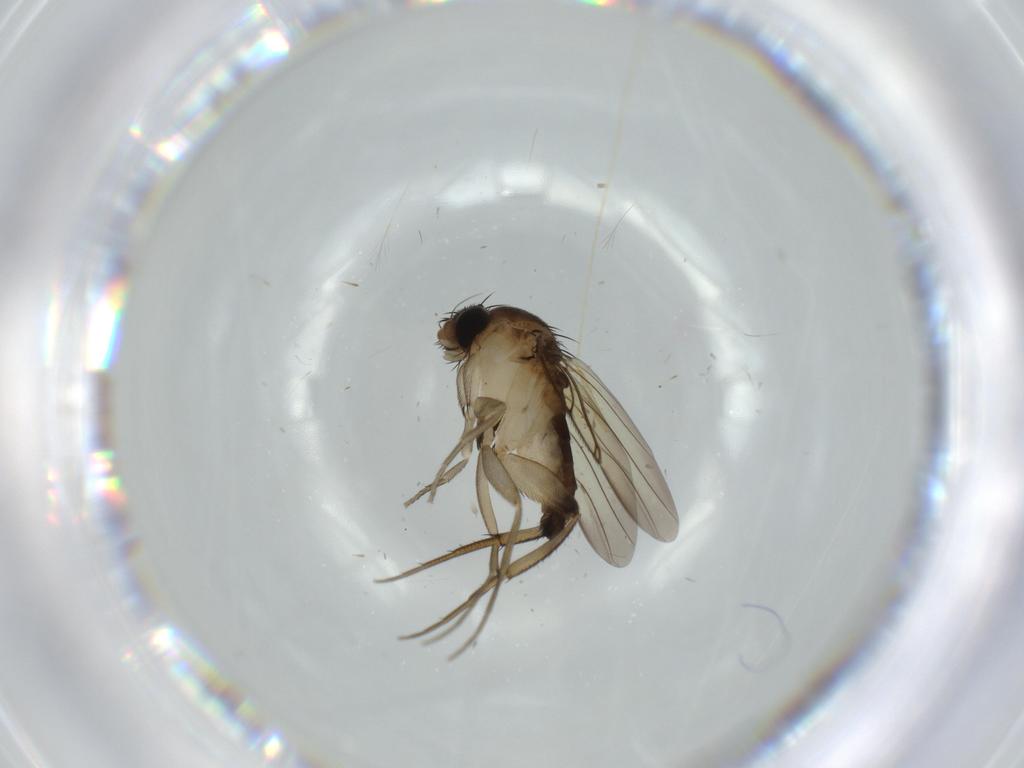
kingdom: Animalia
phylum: Arthropoda
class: Insecta
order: Diptera
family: Phoridae
